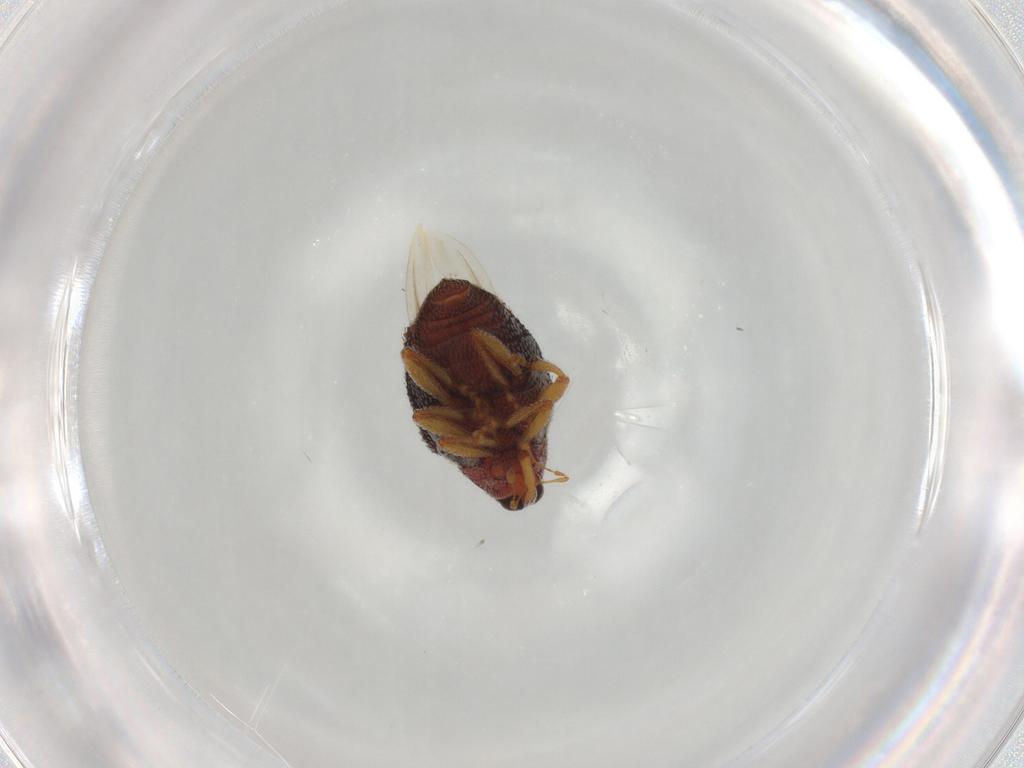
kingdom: Animalia
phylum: Arthropoda
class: Insecta
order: Coleoptera
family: Curculionidae
